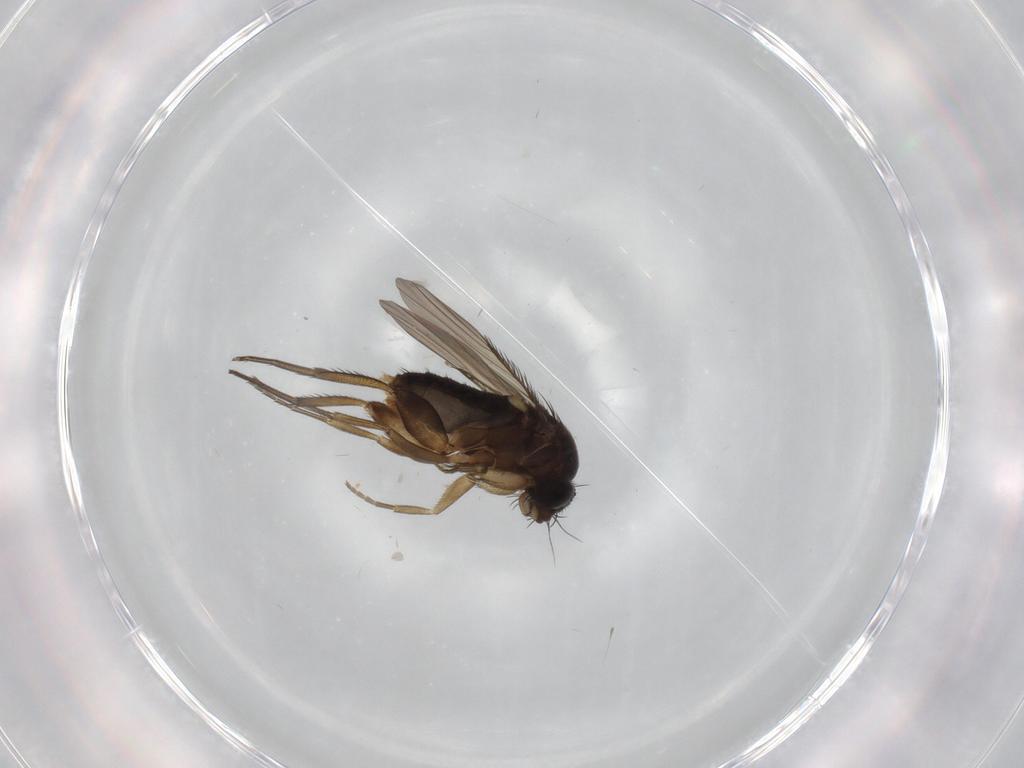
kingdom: Animalia
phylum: Arthropoda
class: Insecta
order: Diptera
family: Phoridae
